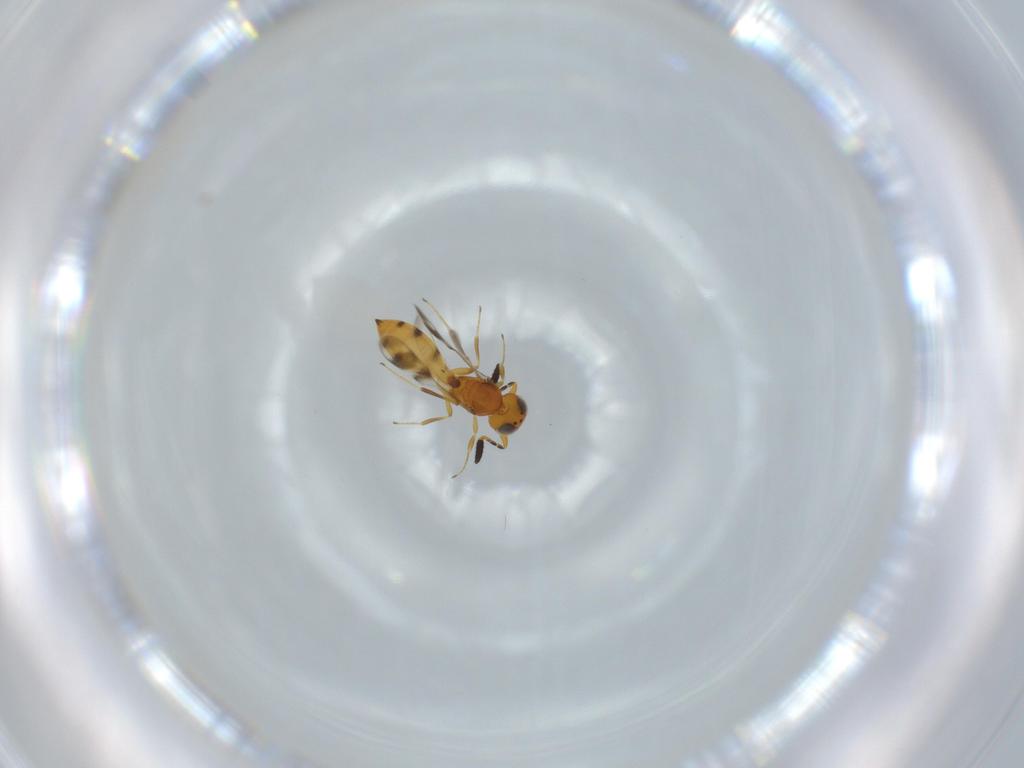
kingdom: Animalia
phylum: Arthropoda
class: Insecta
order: Hymenoptera
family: Scelionidae
